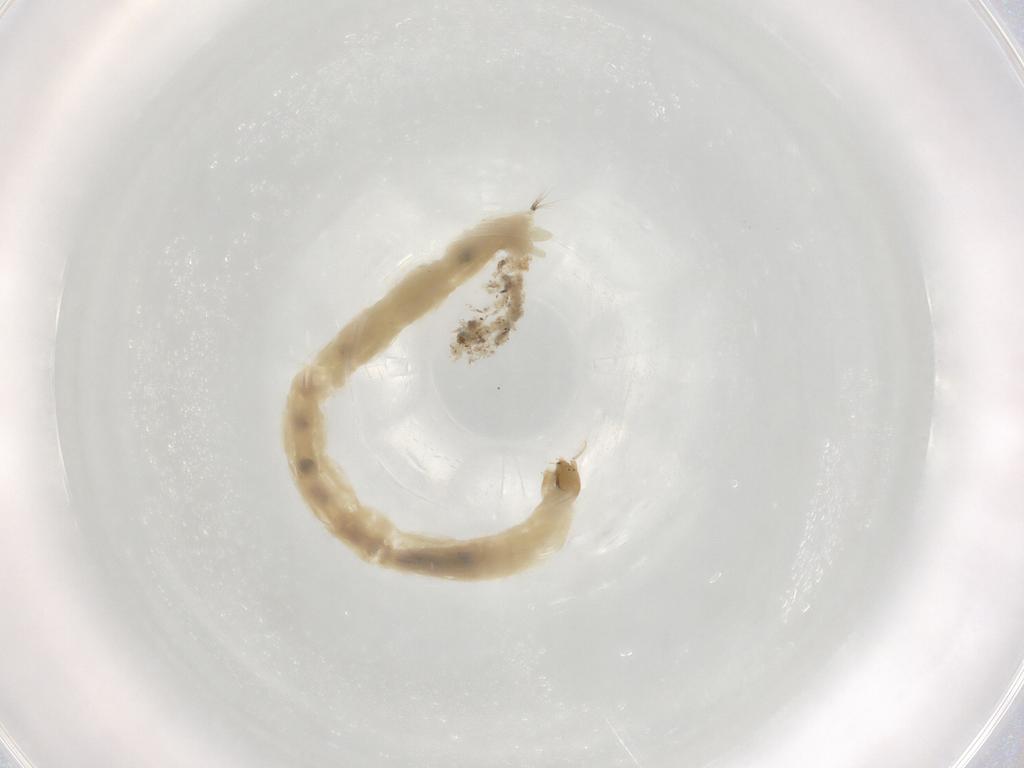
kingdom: Animalia
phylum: Arthropoda
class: Insecta
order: Diptera
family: Chironomidae
